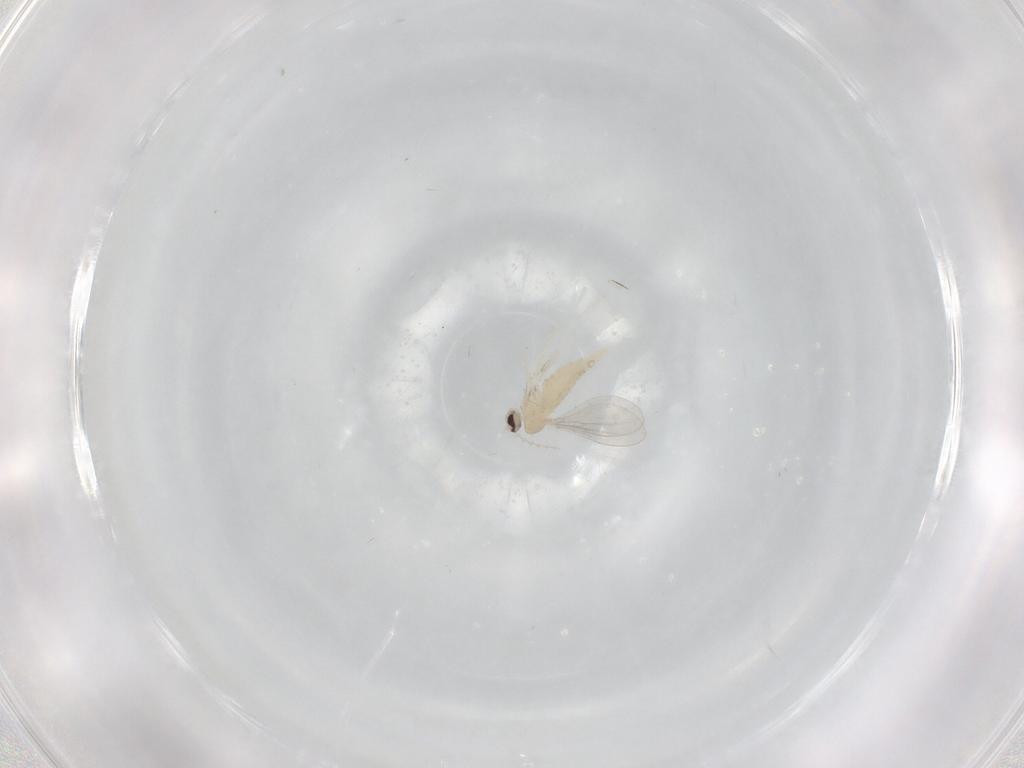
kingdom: Animalia
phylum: Arthropoda
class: Insecta
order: Diptera
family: Cecidomyiidae
